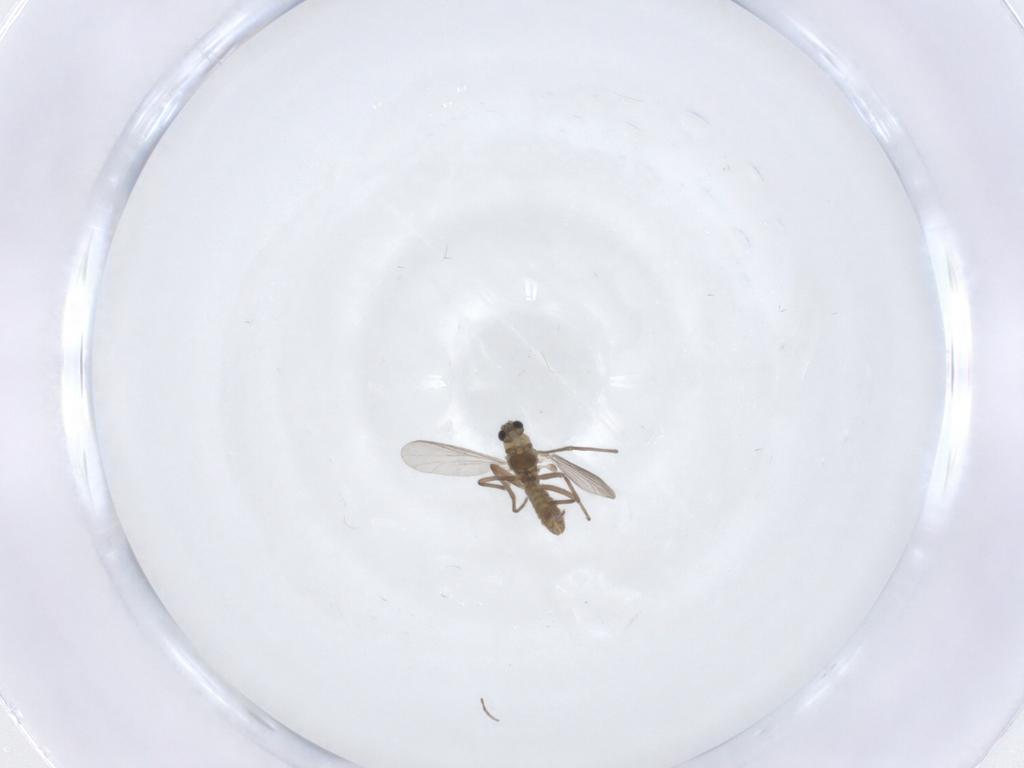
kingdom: Animalia
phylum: Arthropoda
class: Insecta
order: Diptera
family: Chironomidae
